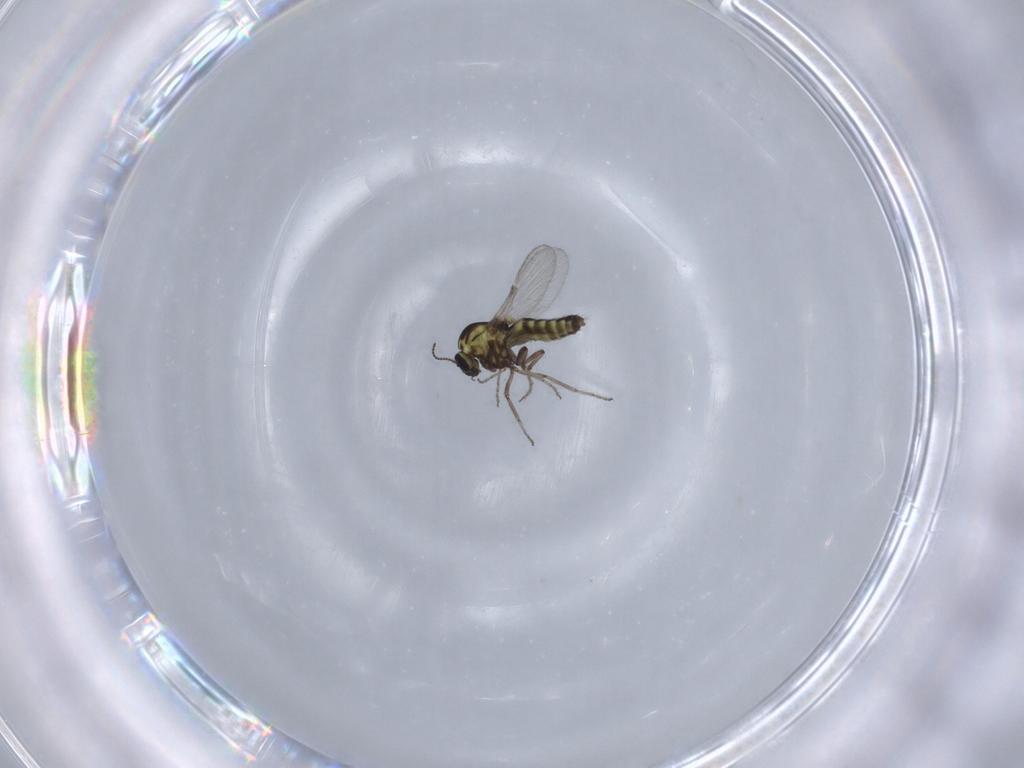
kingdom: Animalia
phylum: Arthropoda
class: Insecta
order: Diptera
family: Ceratopogonidae
